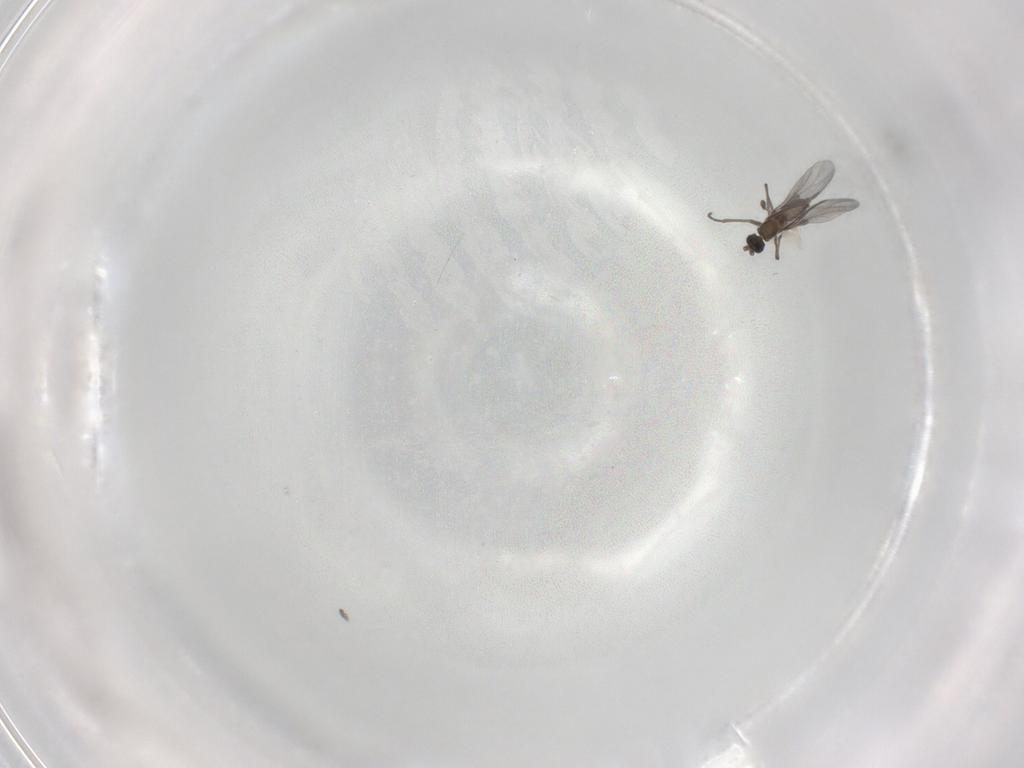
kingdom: Animalia
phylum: Arthropoda
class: Insecta
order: Diptera
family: Sciaridae
